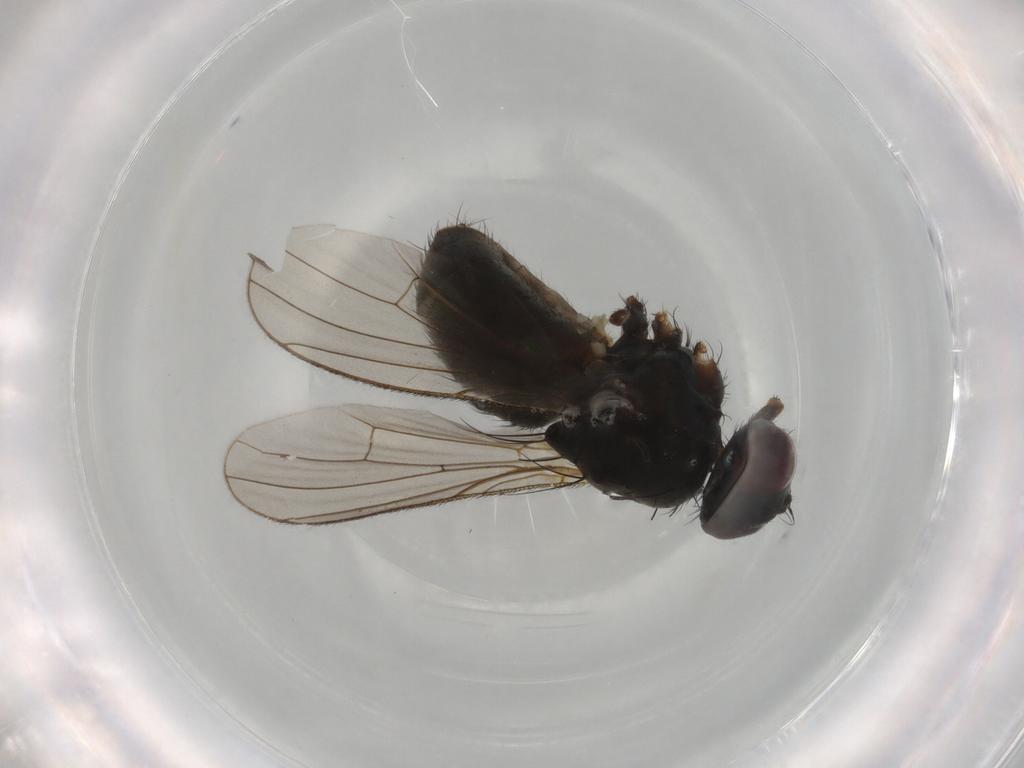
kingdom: Animalia
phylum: Arthropoda
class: Insecta
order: Diptera
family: Muscidae
